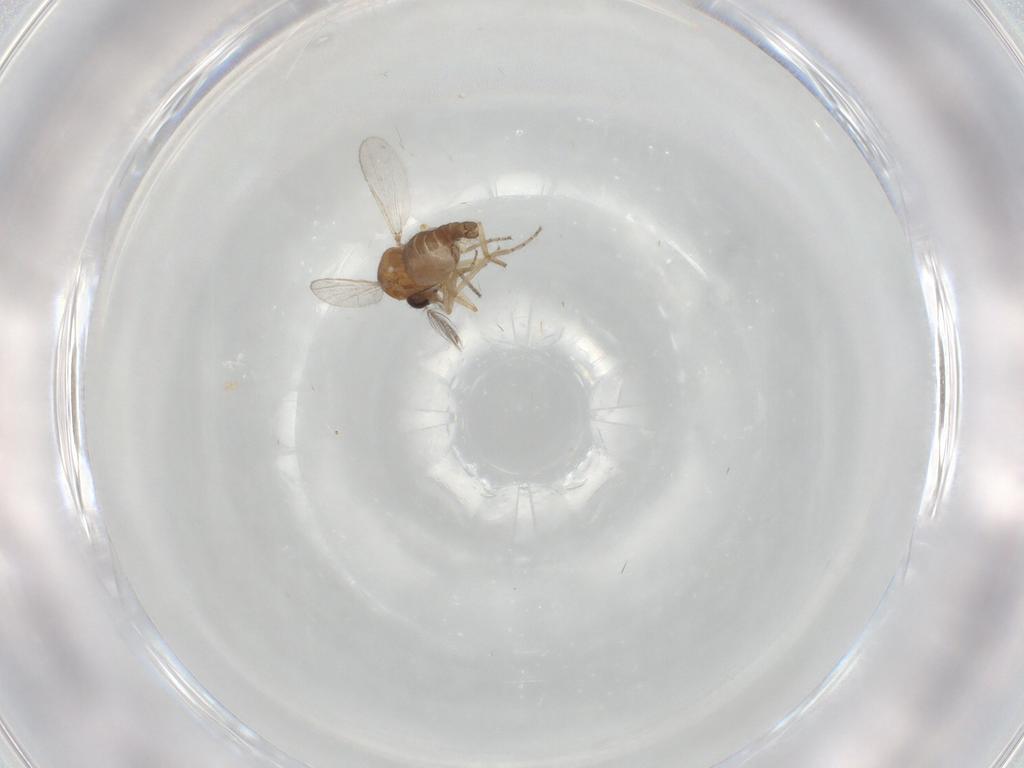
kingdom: Animalia
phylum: Arthropoda
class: Insecta
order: Diptera
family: Ceratopogonidae
